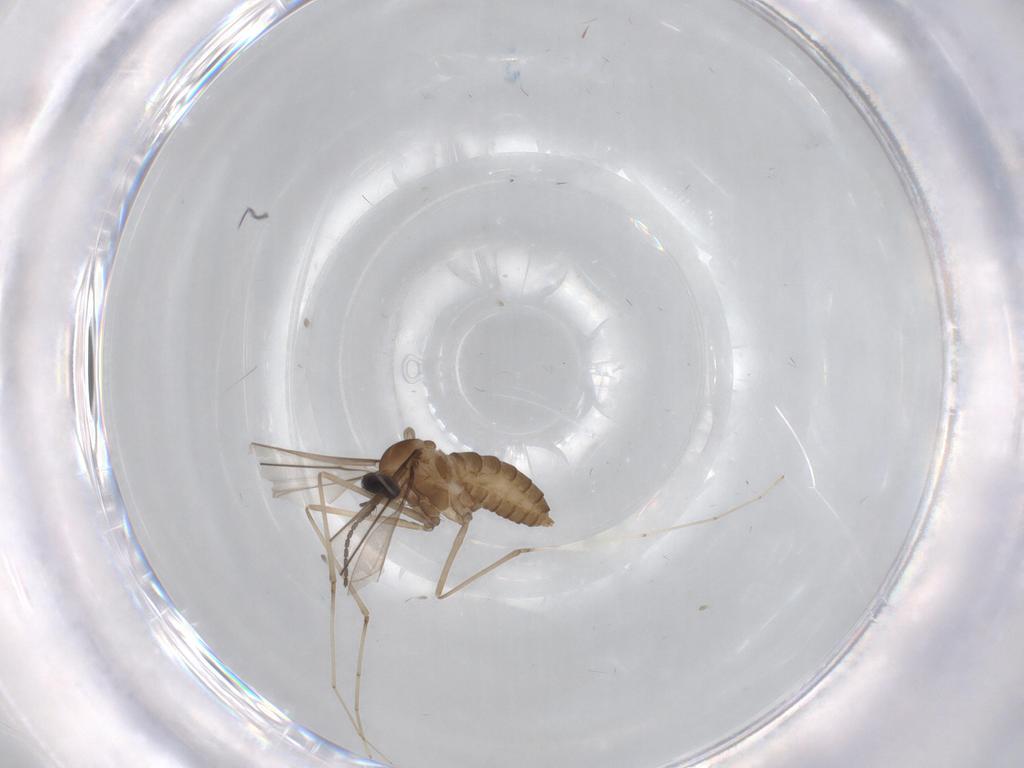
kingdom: Animalia
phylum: Arthropoda
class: Insecta
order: Diptera
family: Cecidomyiidae
